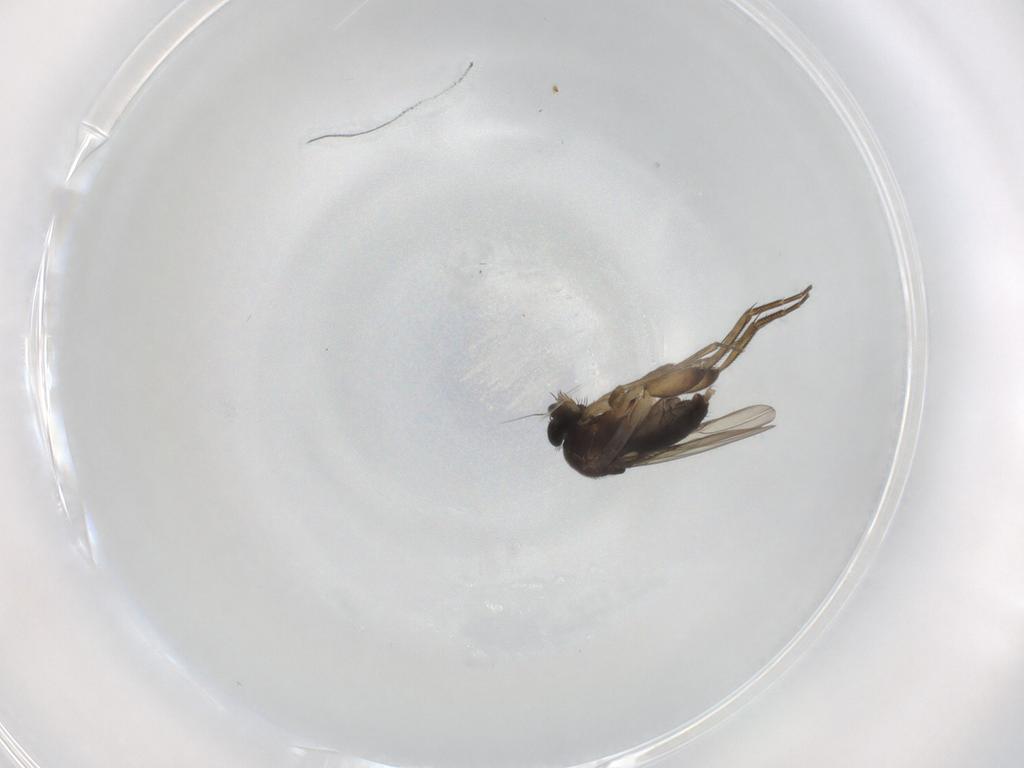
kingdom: Animalia
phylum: Arthropoda
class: Insecta
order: Diptera
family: Phoridae
